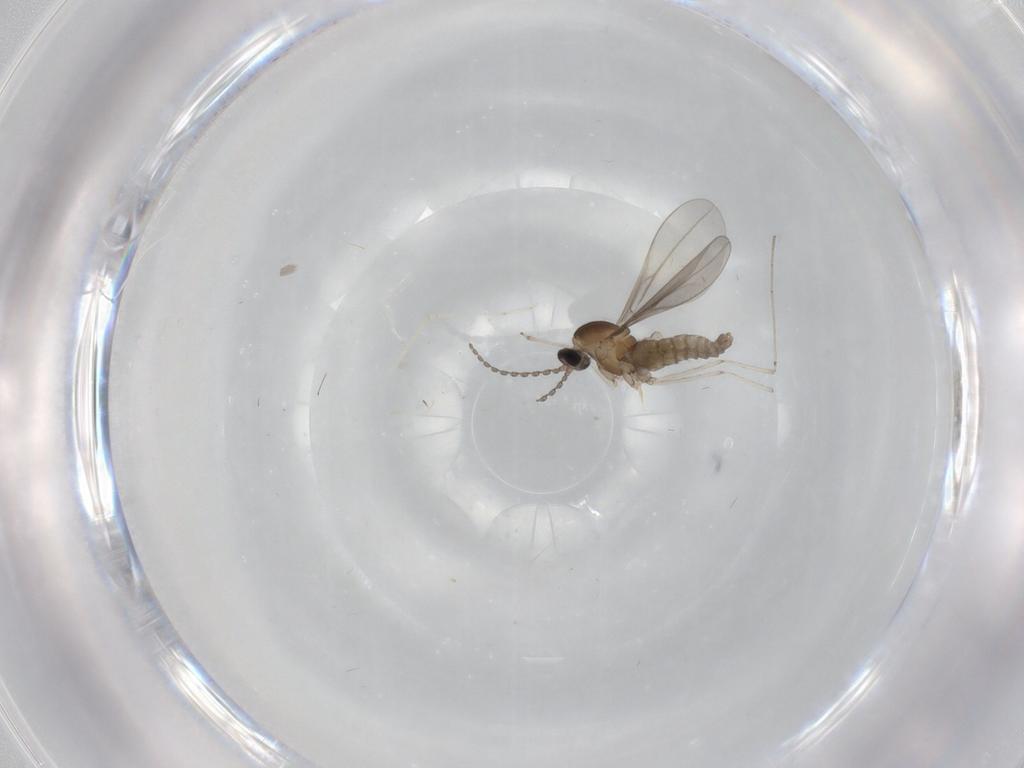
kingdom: Animalia
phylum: Arthropoda
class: Insecta
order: Diptera
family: Cecidomyiidae
